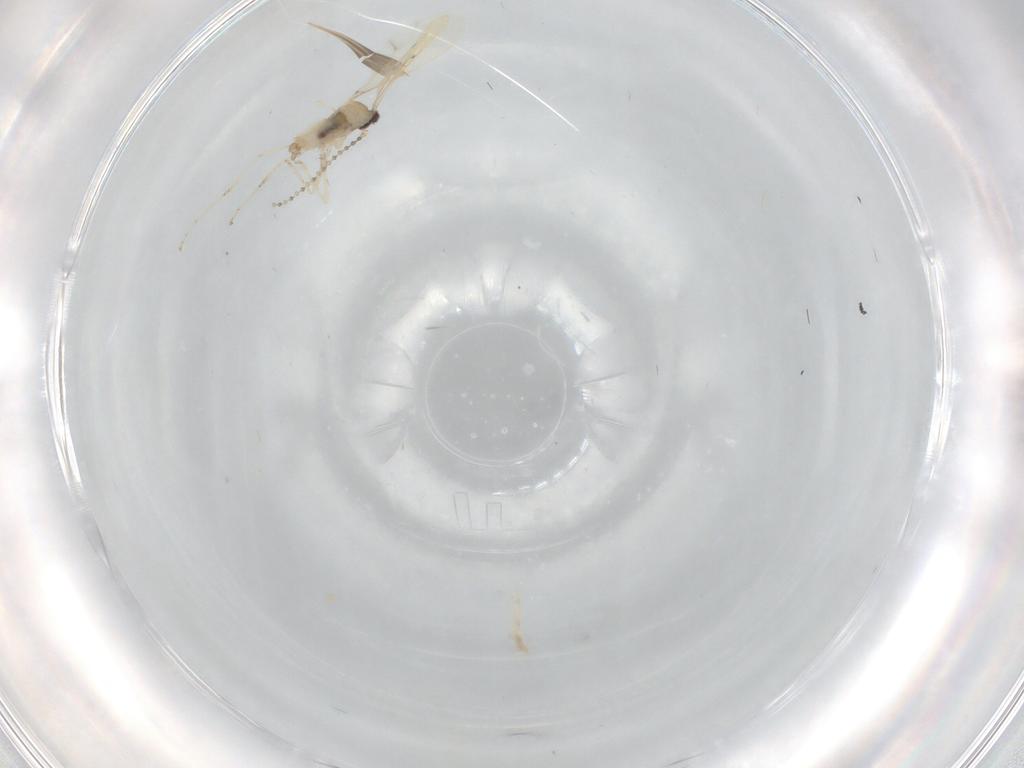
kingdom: Animalia
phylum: Arthropoda
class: Insecta
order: Diptera
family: Cecidomyiidae
